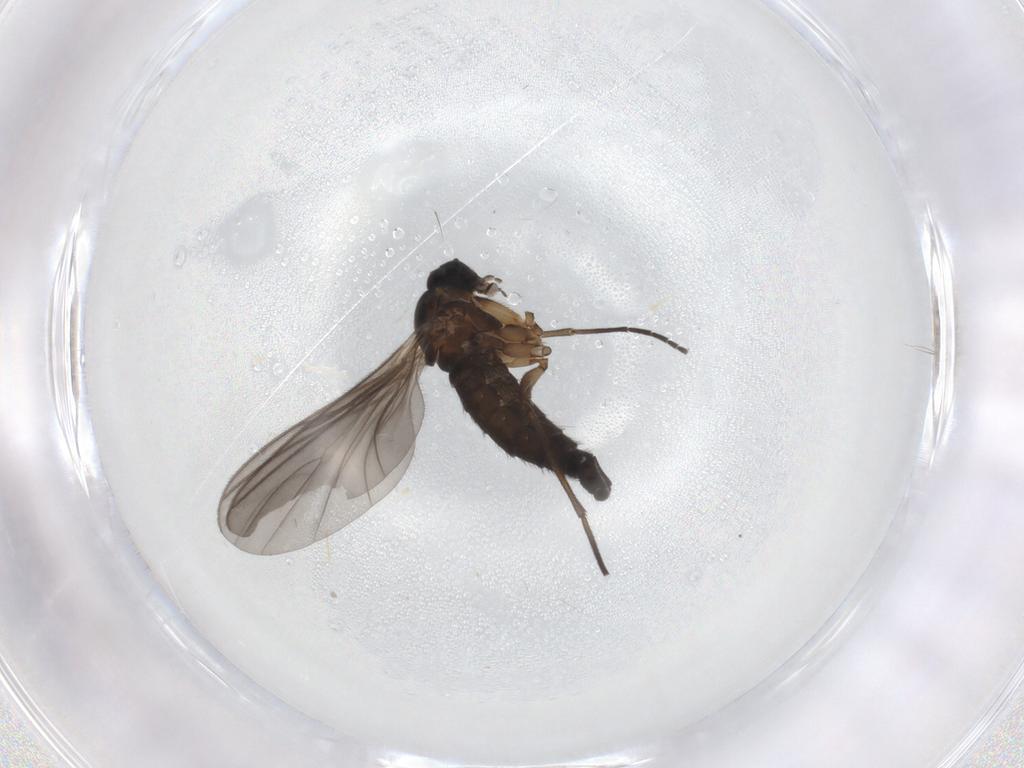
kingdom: Animalia
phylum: Arthropoda
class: Insecta
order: Diptera
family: Sciaridae
